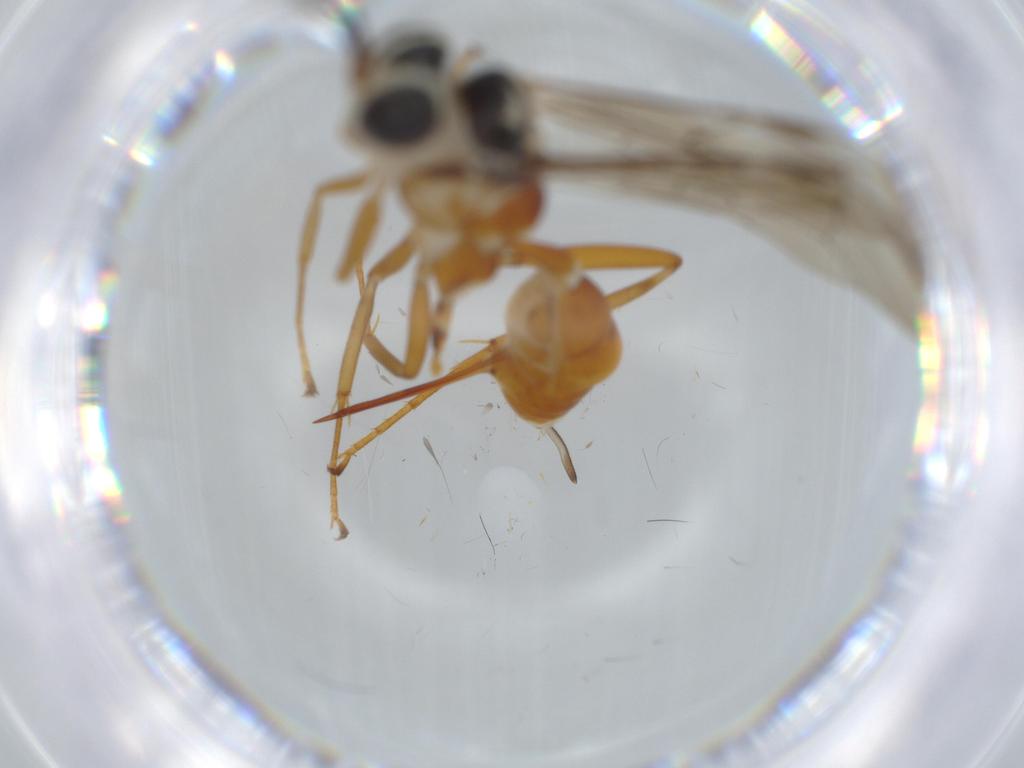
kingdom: Animalia
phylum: Arthropoda
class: Insecta
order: Hymenoptera
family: Scelionidae
